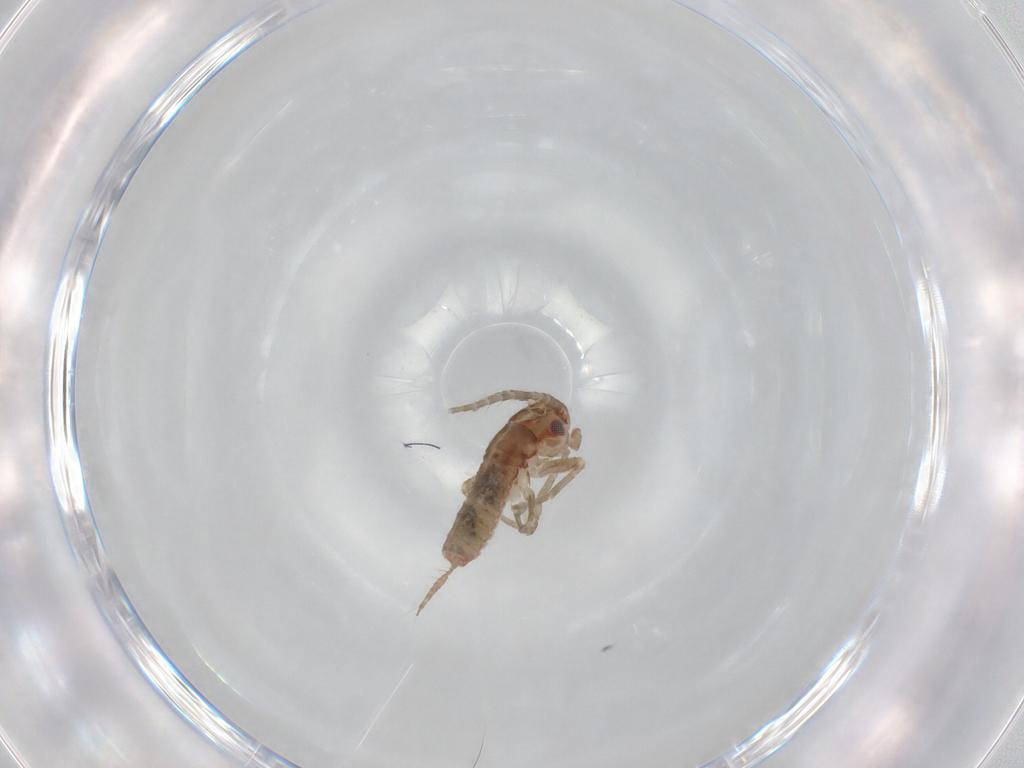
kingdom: Animalia
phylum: Arthropoda
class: Insecta
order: Orthoptera
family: Mogoplistidae
